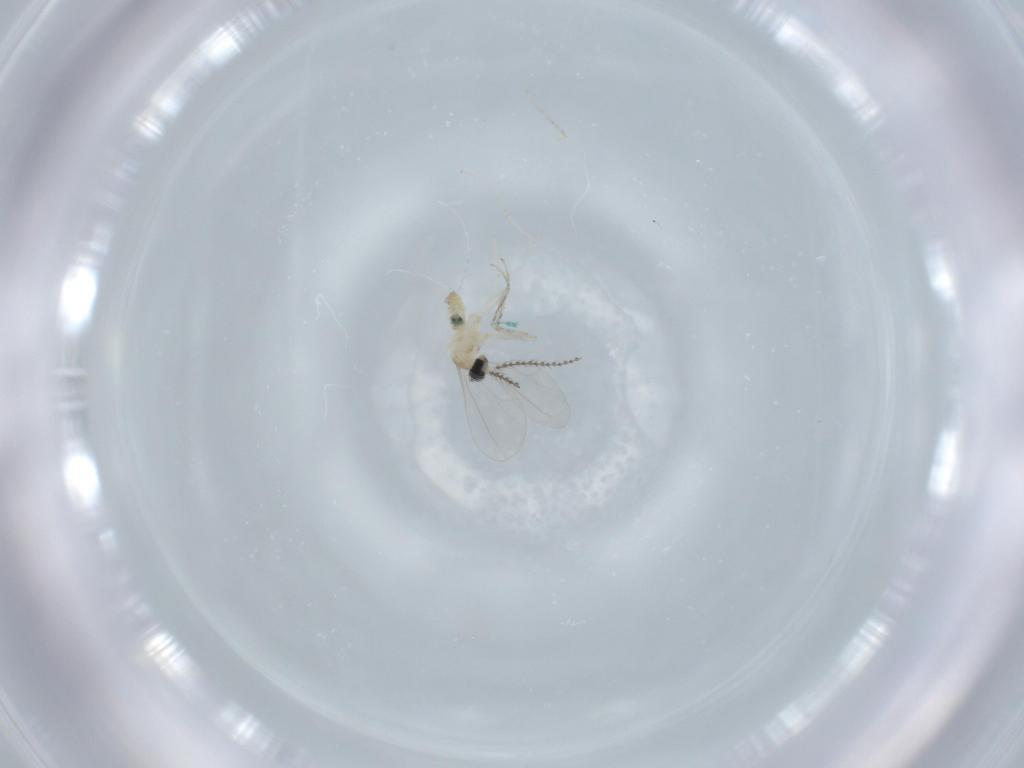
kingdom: Animalia
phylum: Arthropoda
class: Insecta
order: Diptera
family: Cecidomyiidae
